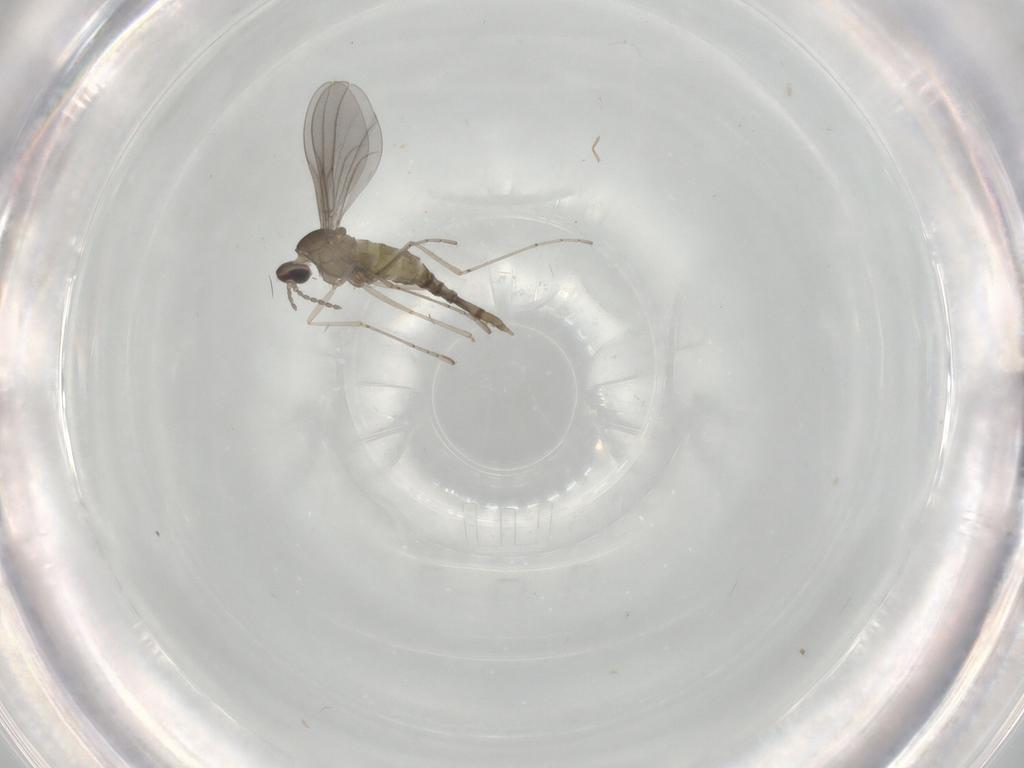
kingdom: Animalia
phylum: Arthropoda
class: Insecta
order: Diptera
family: Cecidomyiidae
